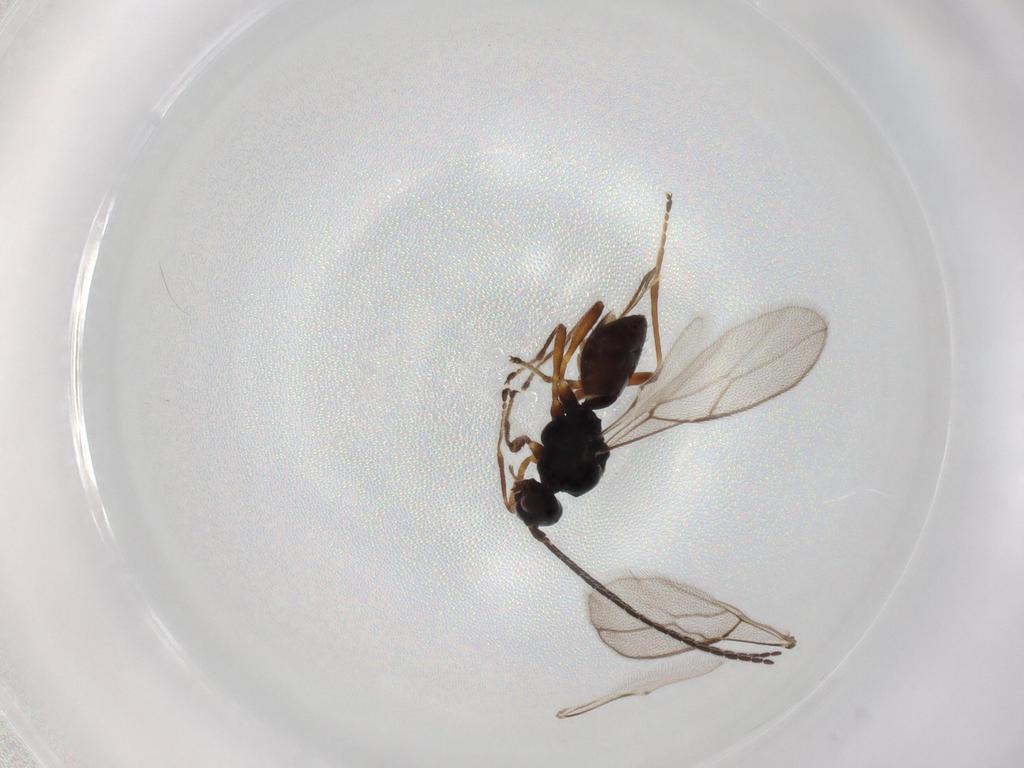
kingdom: Animalia
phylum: Arthropoda
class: Insecta
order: Hymenoptera
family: Braconidae
